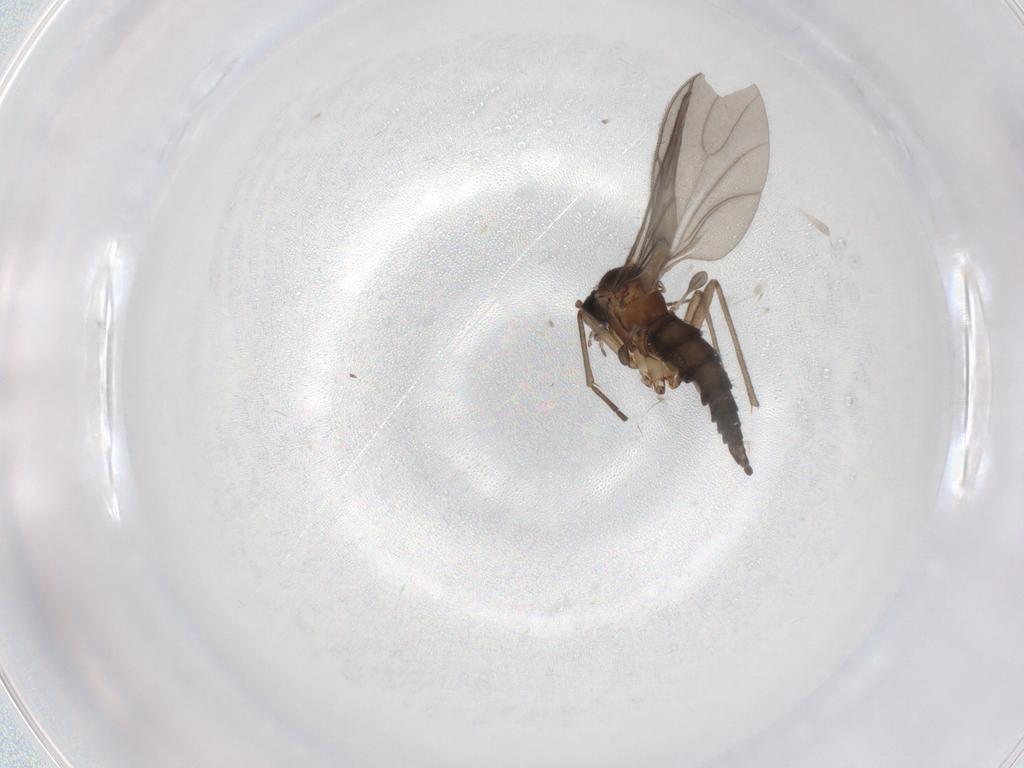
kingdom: Animalia
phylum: Arthropoda
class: Insecta
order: Diptera
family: Sciaridae
